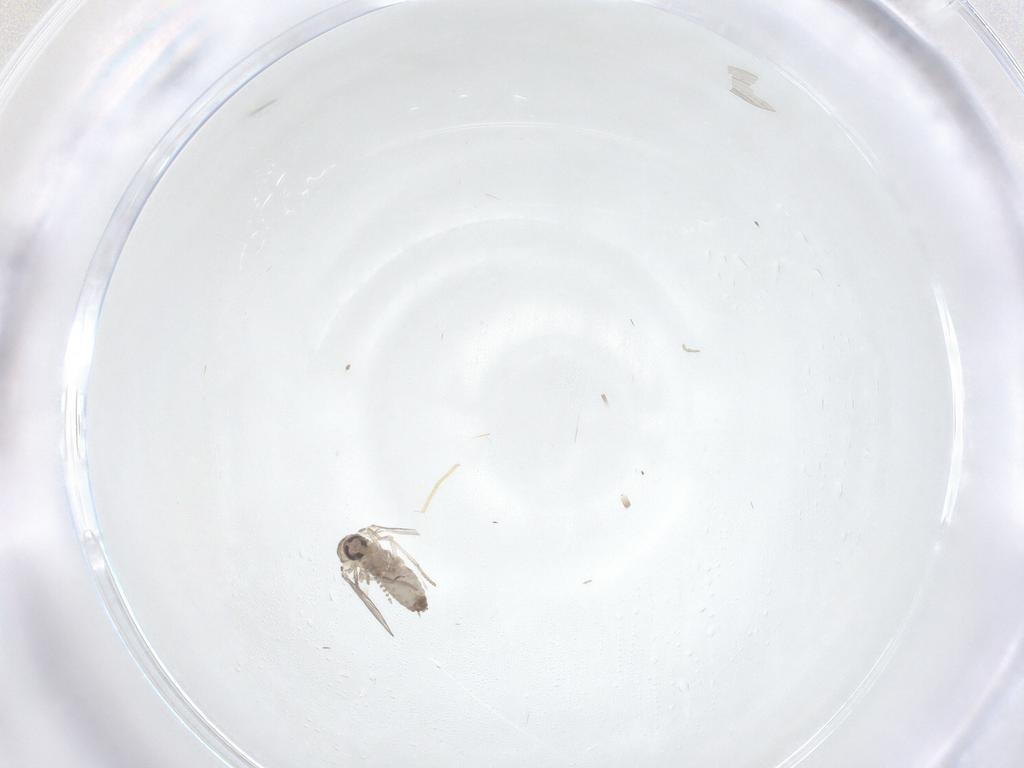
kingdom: Animalia
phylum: Arthropoda
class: Insecta
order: Diptera
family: Psychodidae
